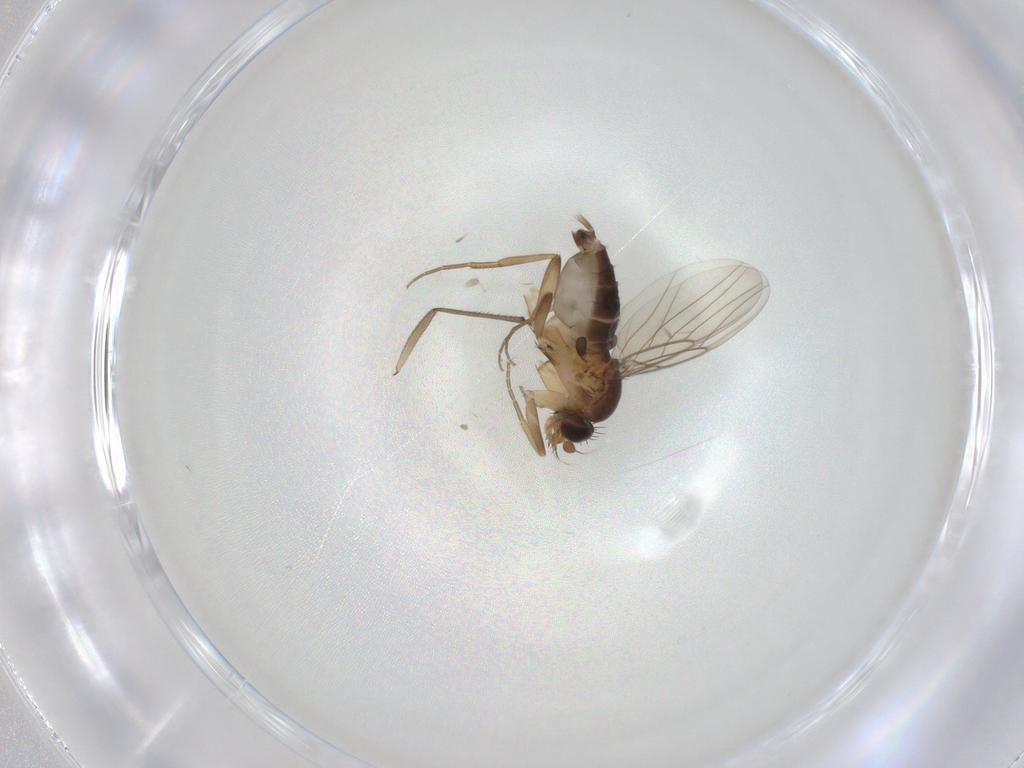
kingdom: Animalia
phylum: Arthropoda
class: Insecta
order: Diptera
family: Phoridae
